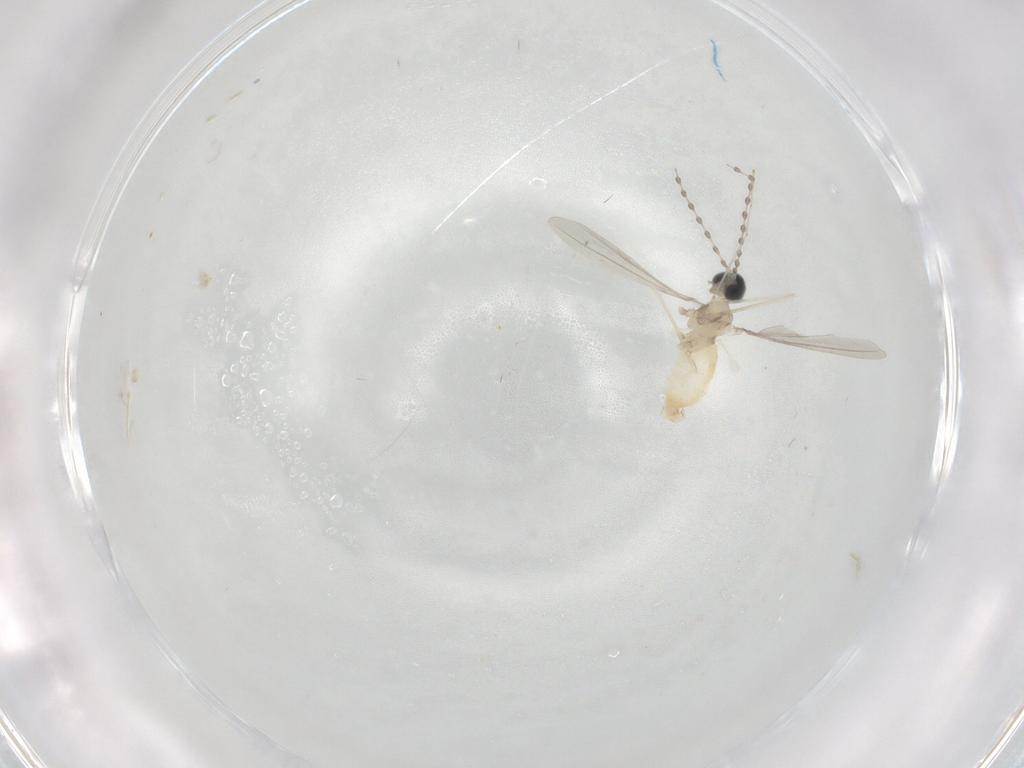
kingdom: Animalia
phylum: Arthropoda
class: Insecta
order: Diptera
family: Cecidomyiidae
